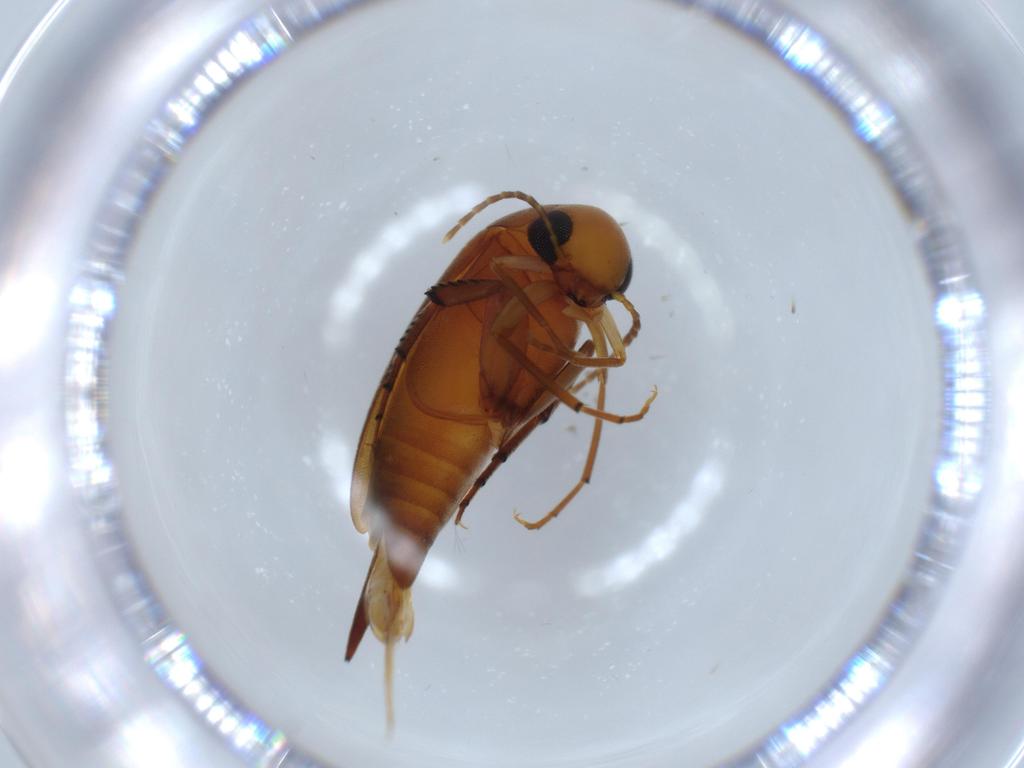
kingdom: Animalia
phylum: Arthropoda
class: Insecta
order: Coleoptera
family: Mordellidae
